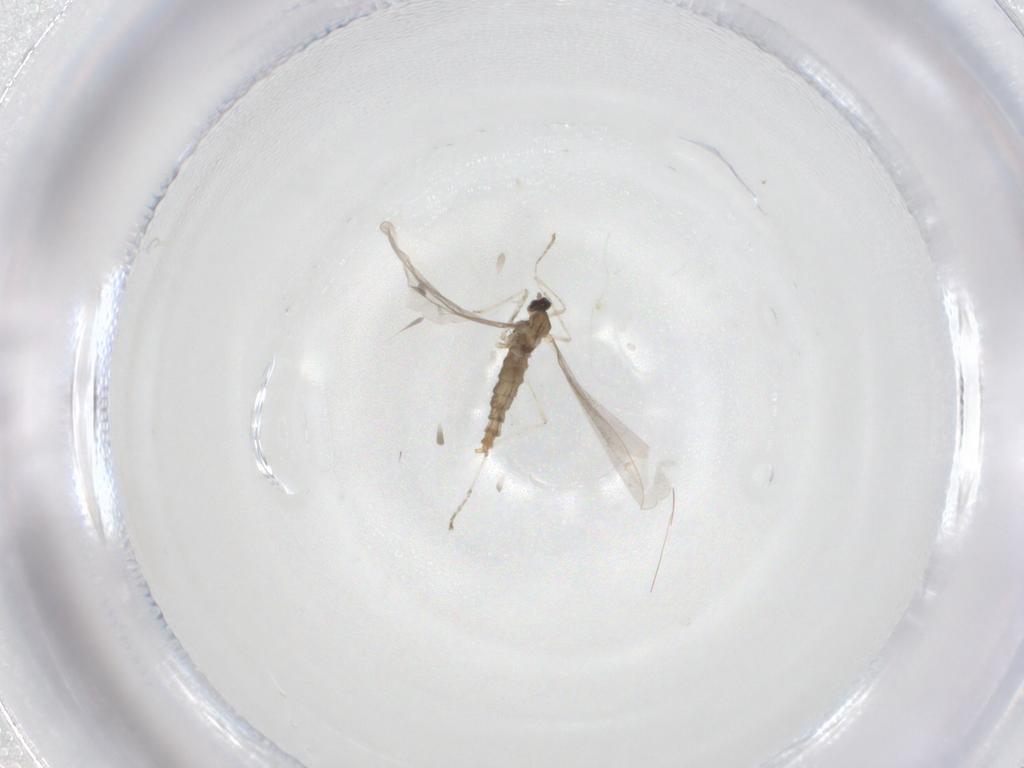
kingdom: Animalia
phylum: Arthropoda
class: Insecta
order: Diptera
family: Cecidomyiidae
